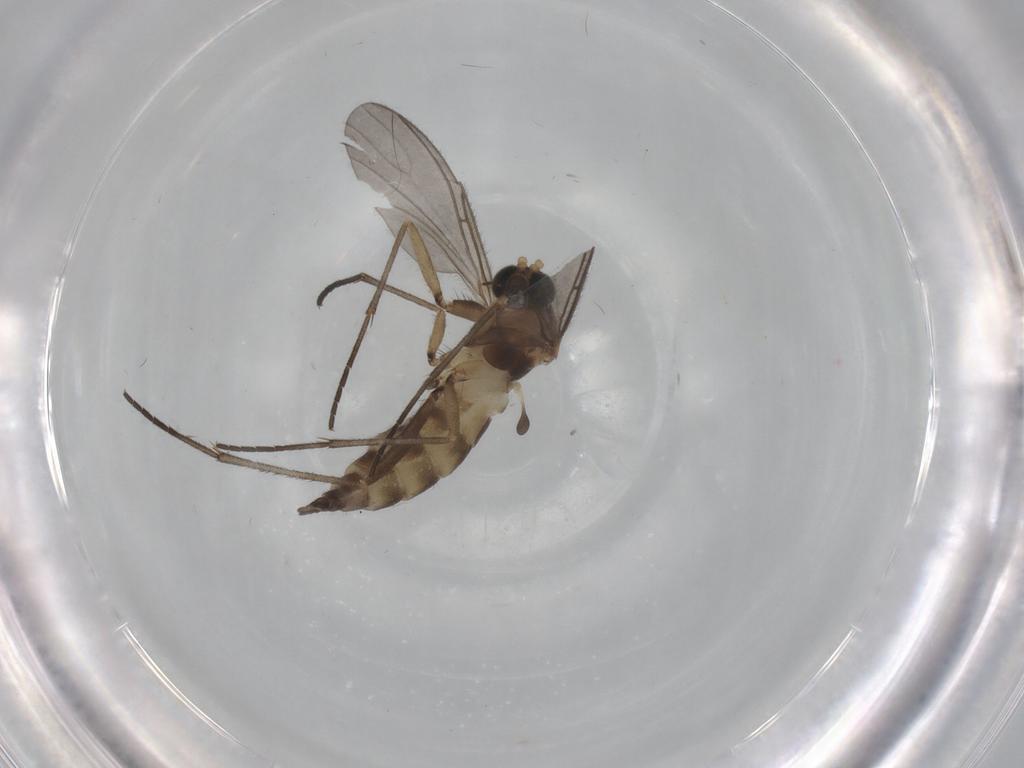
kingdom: Animalia
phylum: Arthropoda
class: Insecta
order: Diptera
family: Sciaridae
